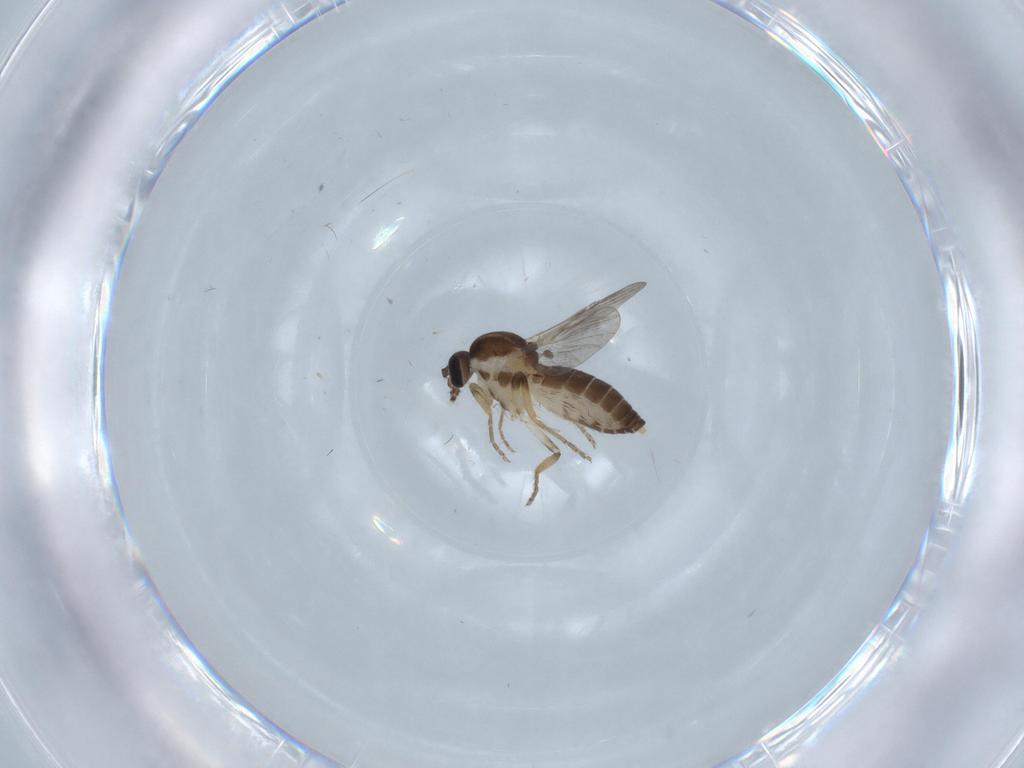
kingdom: Animalia
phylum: Arthropoda
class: Insecta
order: Diptera
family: Ceratopogonidae
